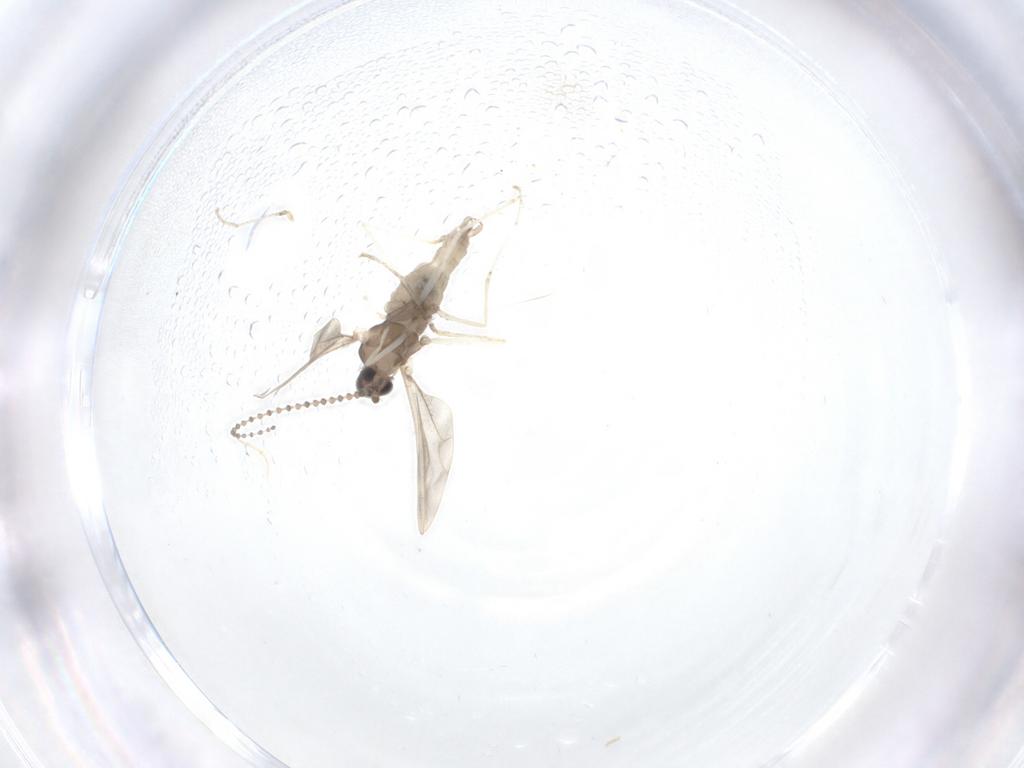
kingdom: Animalia
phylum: Arthropoda
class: Insecta
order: Diptera
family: Cecidomyiidae
